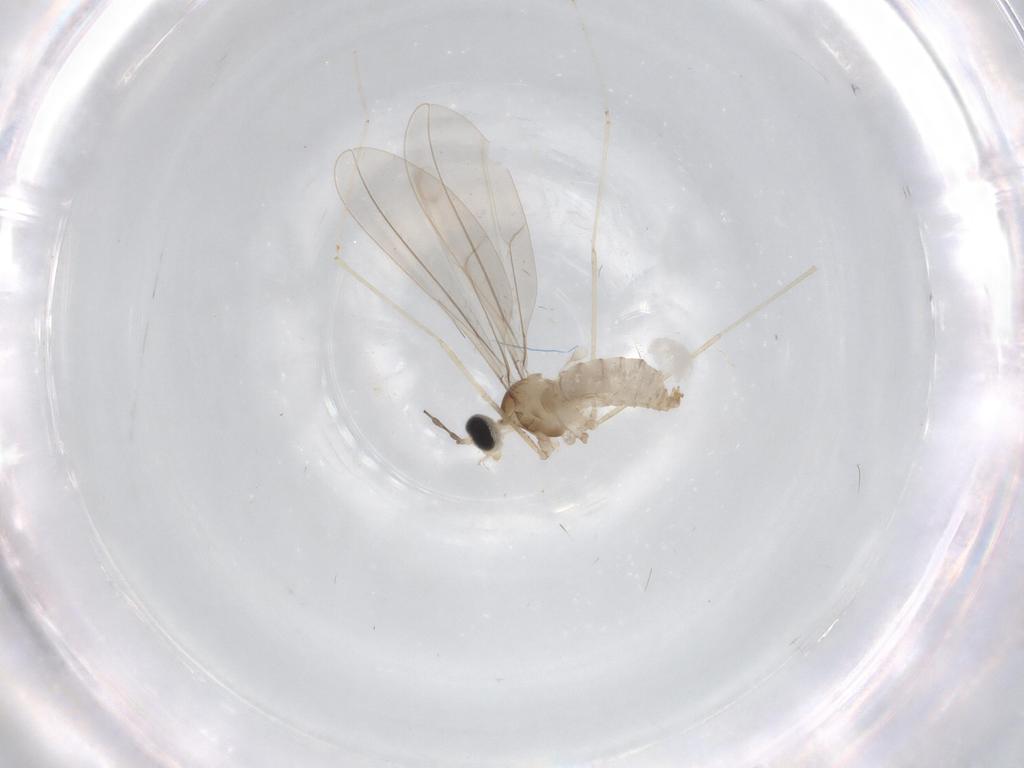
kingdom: Animalia
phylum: Arthropoda
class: Insecta
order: Diptera
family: Cecidomyiidae
